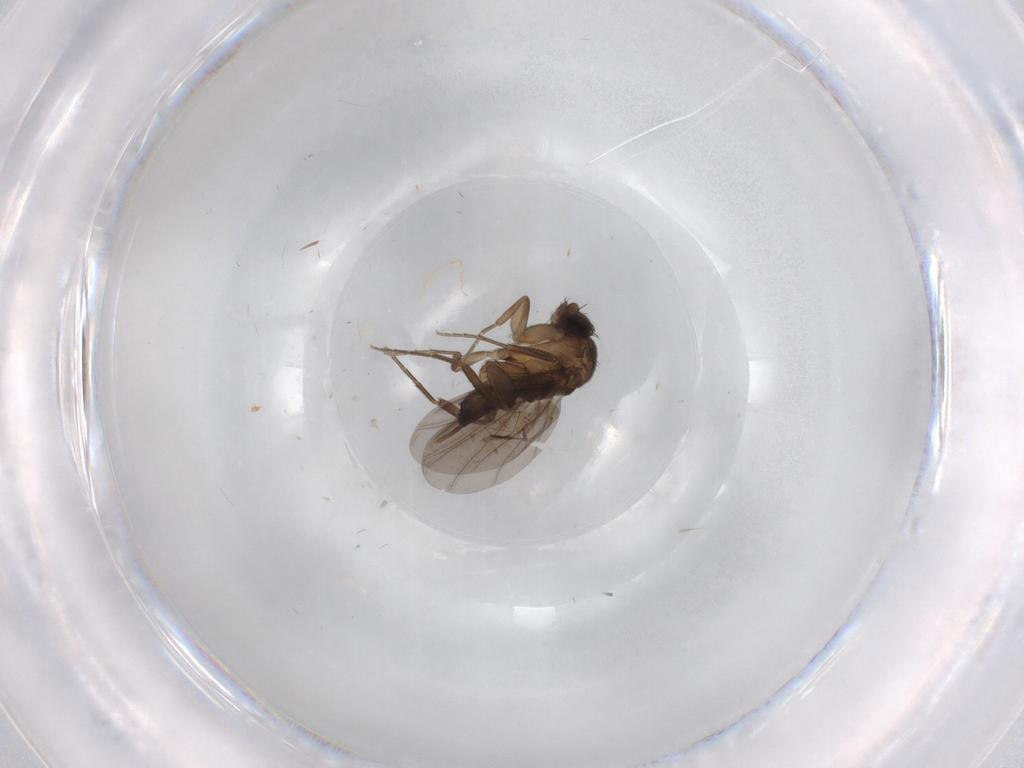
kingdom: Animalia
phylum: Arthropoda
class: Insecta
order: Diptera
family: Phoridae
